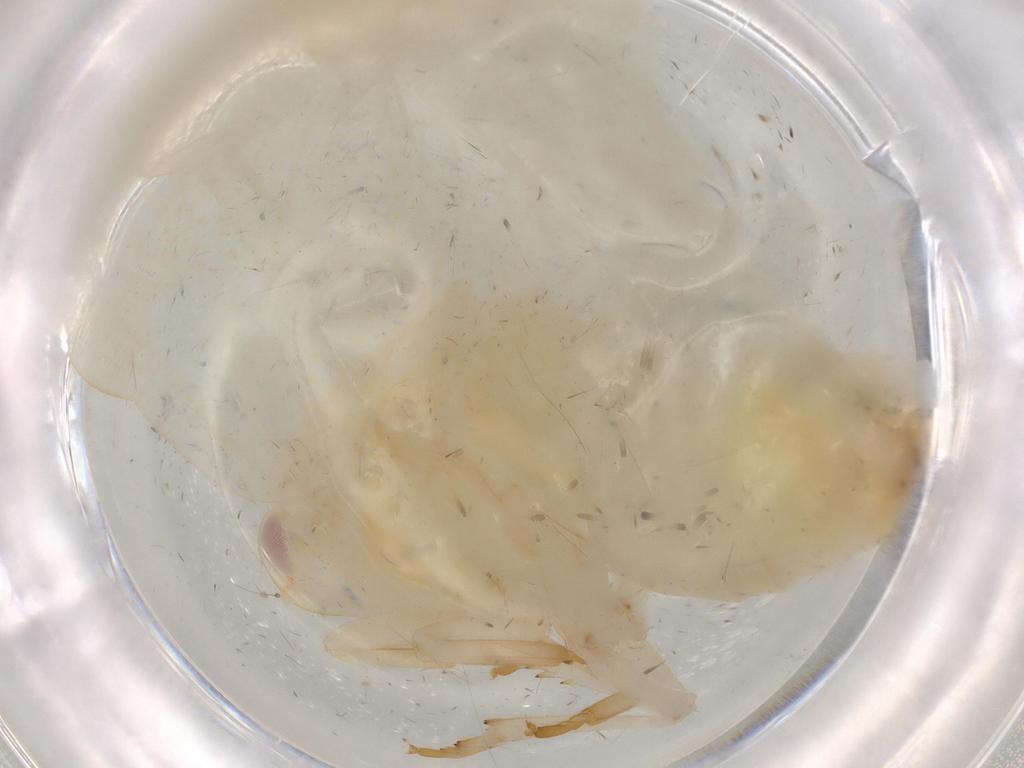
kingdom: Animalia
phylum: Arthropoda
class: Insecta
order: Hemiptera
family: Flatidae
